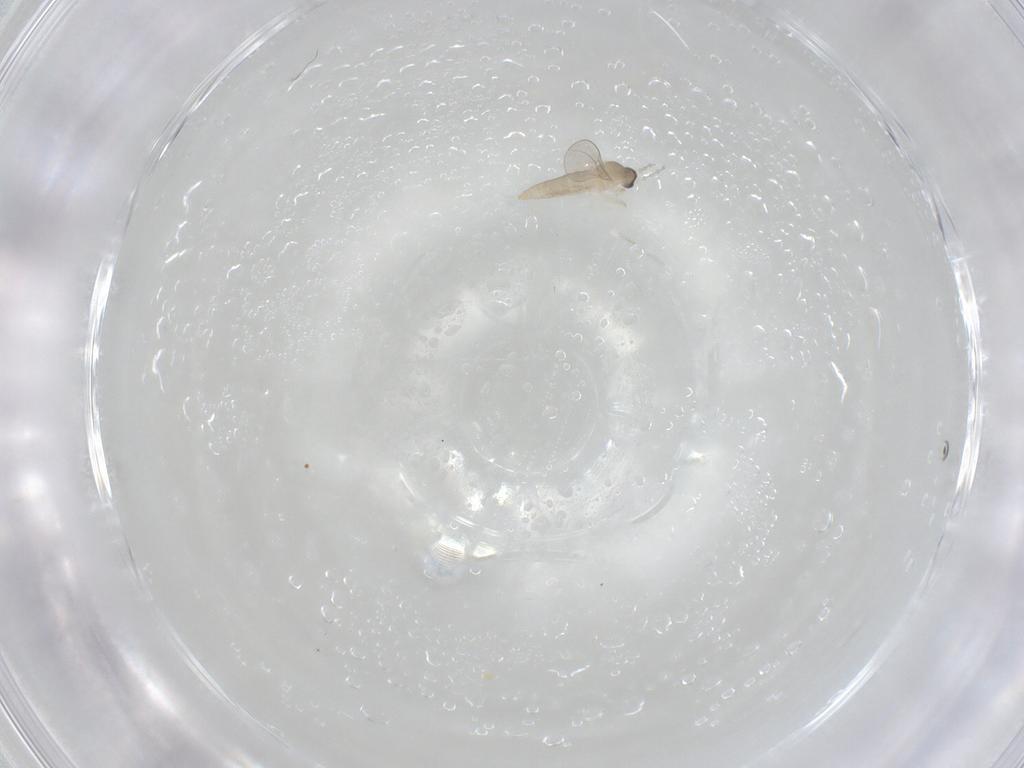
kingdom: Animalia
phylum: Arthropoda
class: Insecta
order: Diptera
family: Cecidomyiidae
